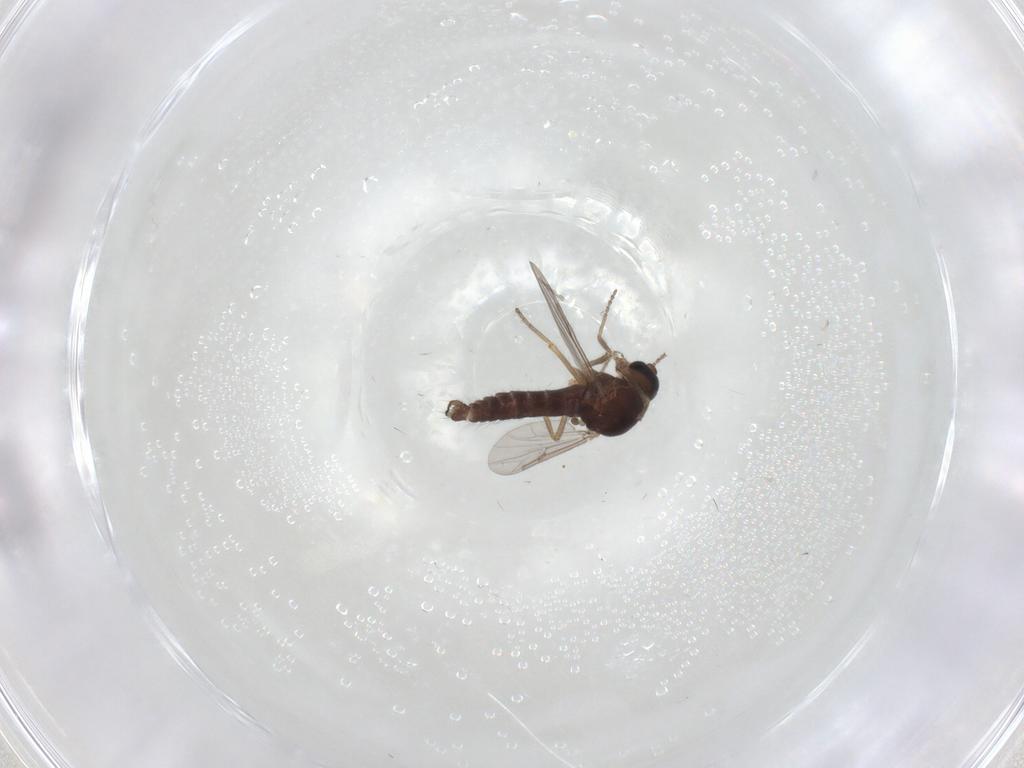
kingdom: Animalia
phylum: Arthropoda
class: Insecta
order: Diptera
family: Ceratopogonidae
